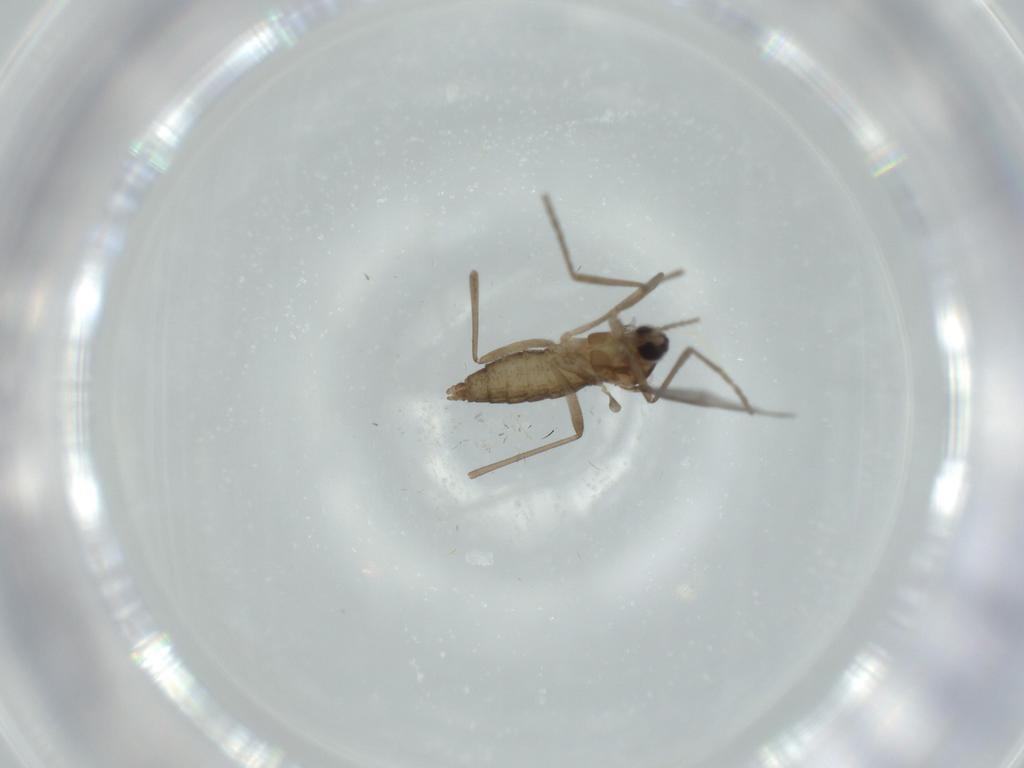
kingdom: Animalia
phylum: Arthropoda
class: Insecta
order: Diptera
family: Cecidomyiidae
